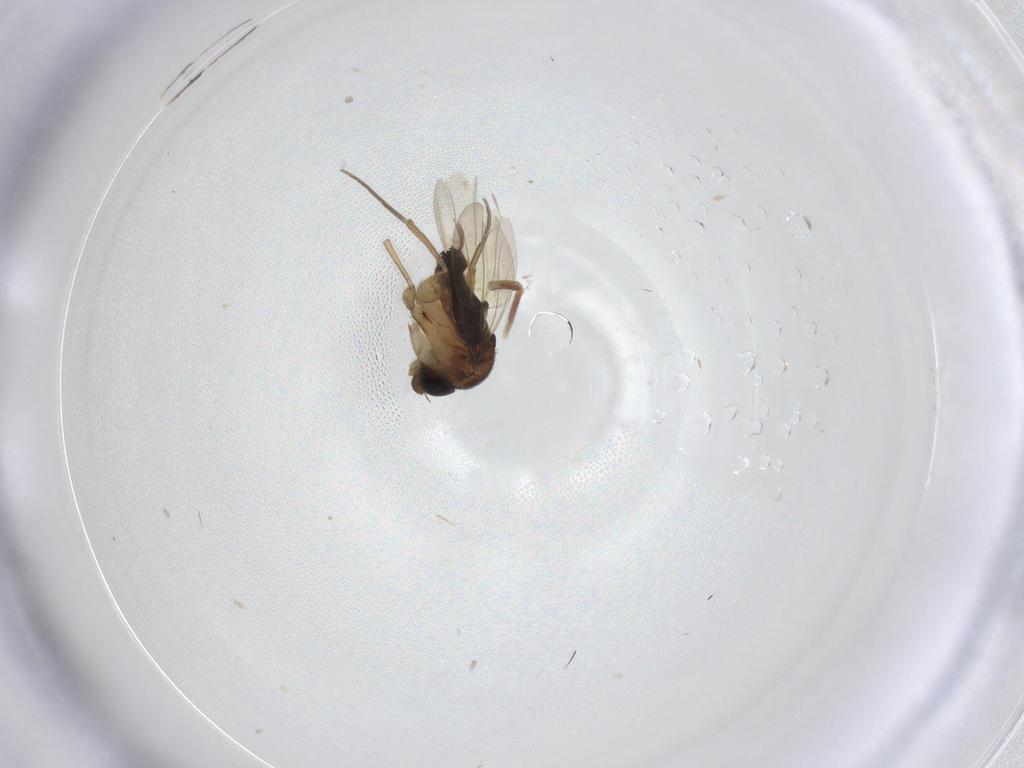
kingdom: Animalia
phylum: Arthropoda
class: Insecta
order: Diptera
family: Phoridae
